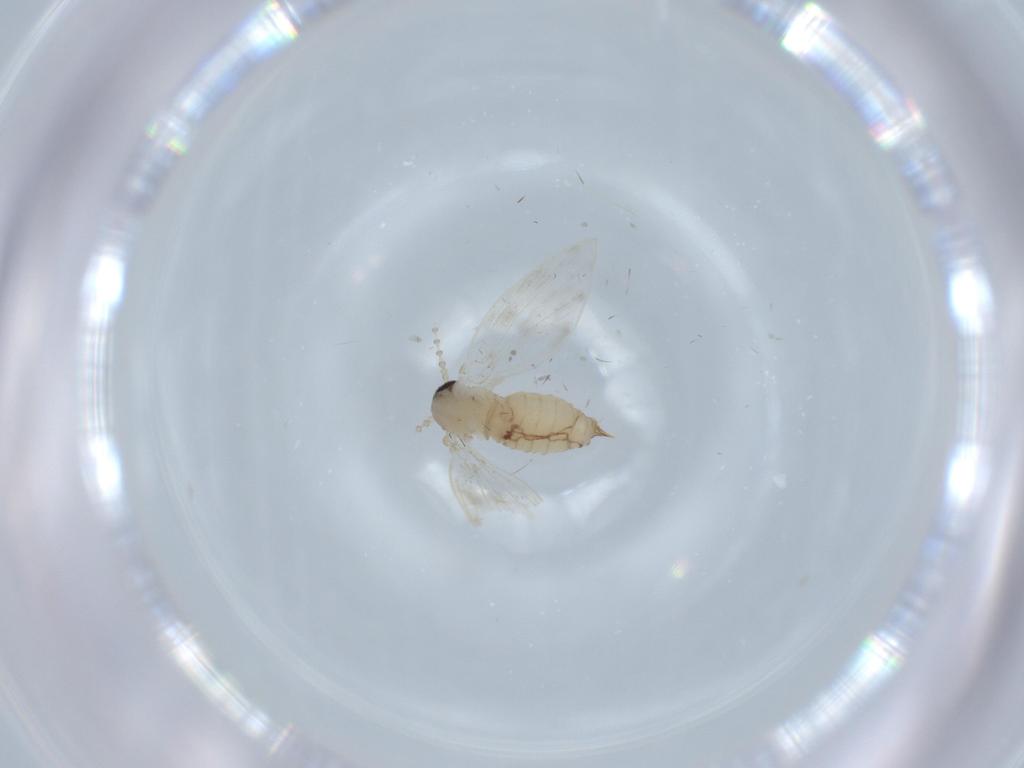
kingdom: Animalia
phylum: Arthropoda
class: Insecta
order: Diptera
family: Psychodidae
